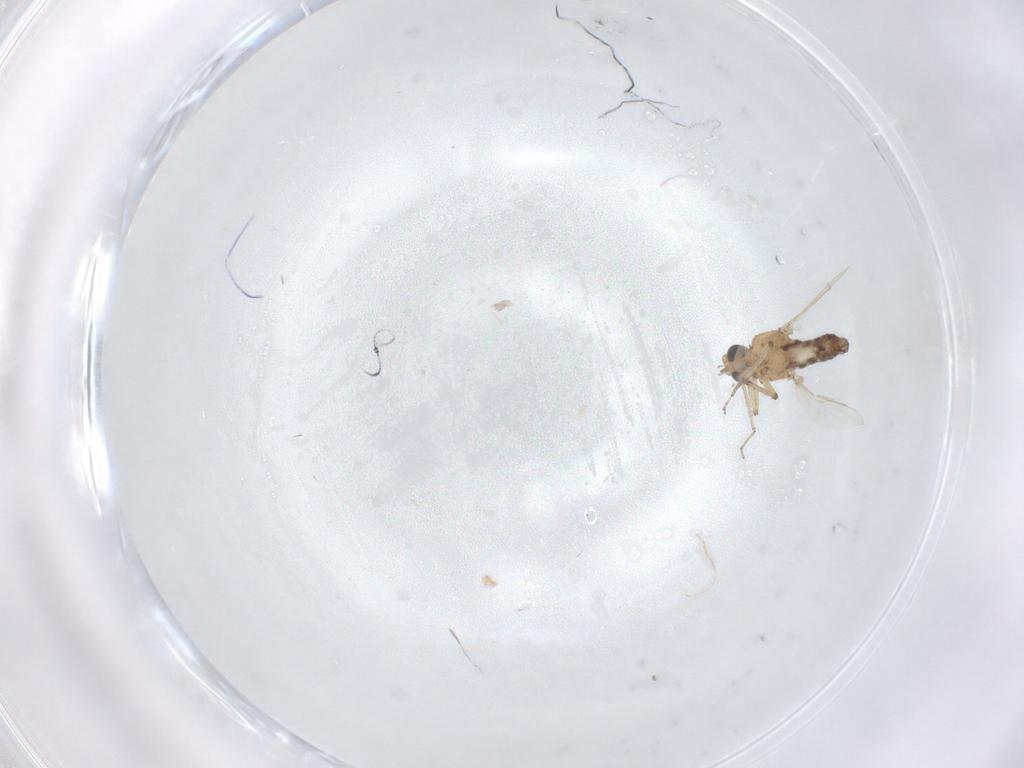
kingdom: Animalia
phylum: Arthropoda
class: Insecta
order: Diptera
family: Ceratopogonidae
